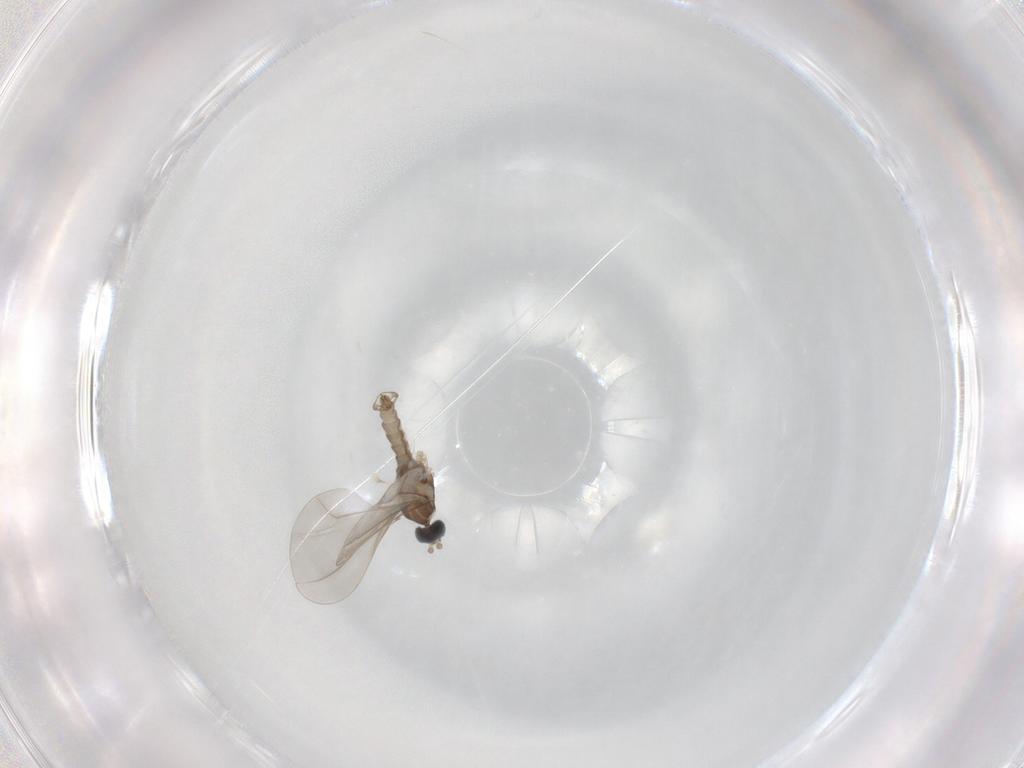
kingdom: Animalia
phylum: Arthropoda
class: Insecta
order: Diptera
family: Cecidomyiidae
